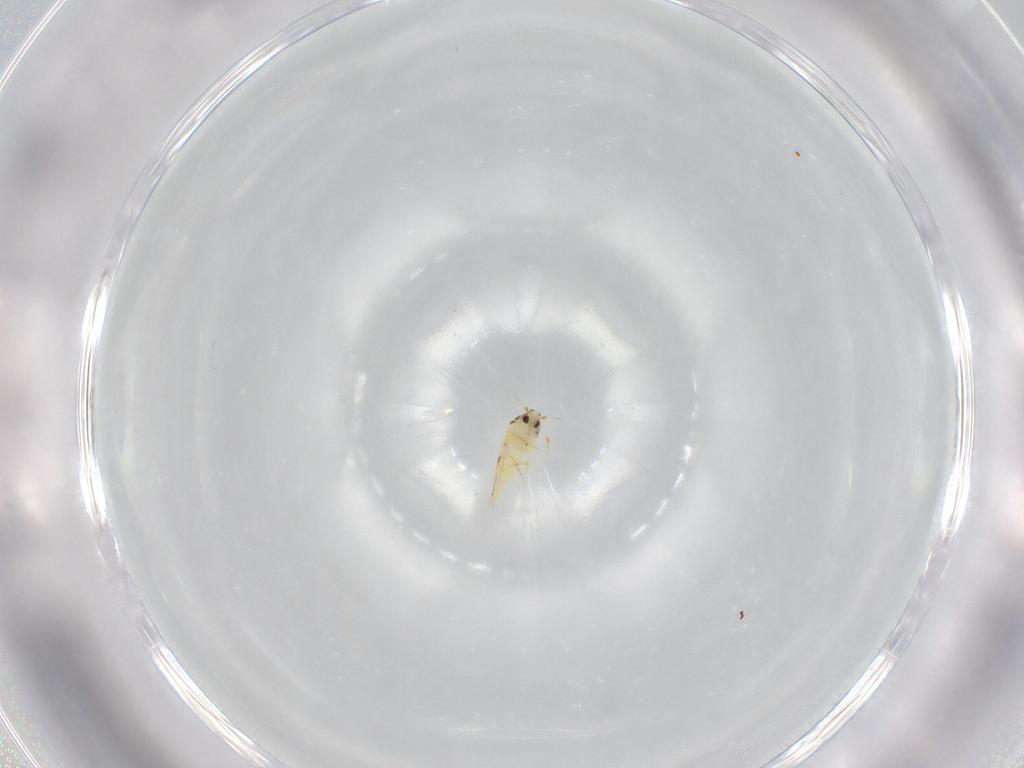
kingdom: Animalia
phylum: Arthropoda
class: Insecta
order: Hemiptera
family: Aleyrodidae
